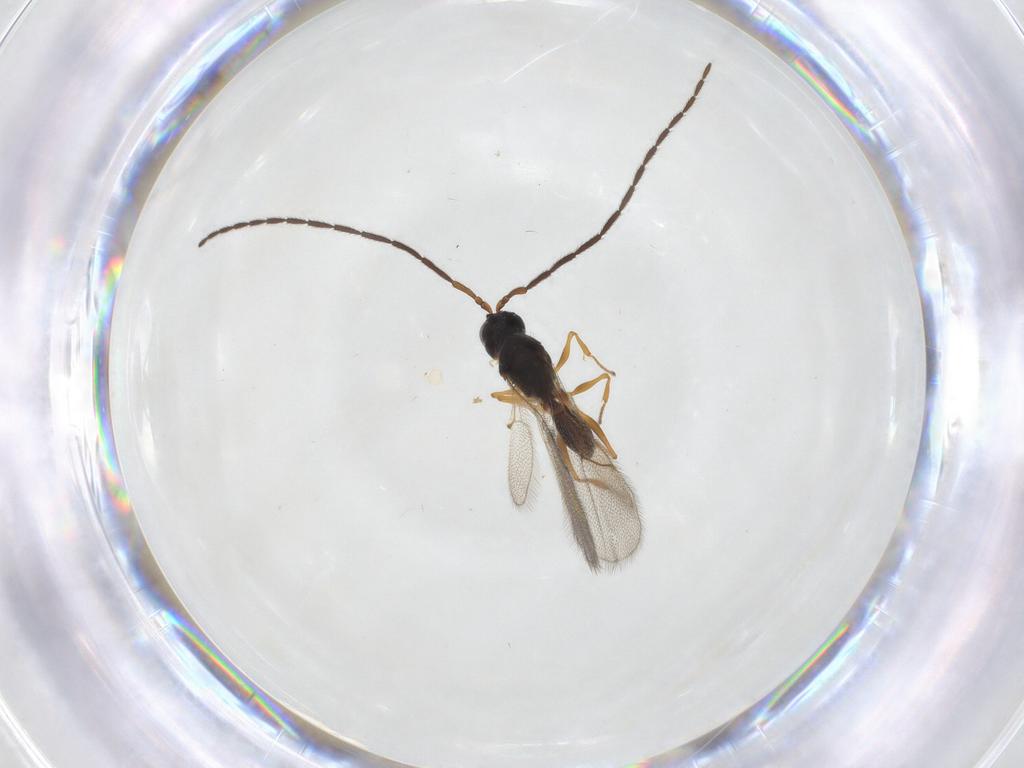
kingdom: Animalia
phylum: Arthropoda
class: Insecta
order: Hymenoptera
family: Figitidae
